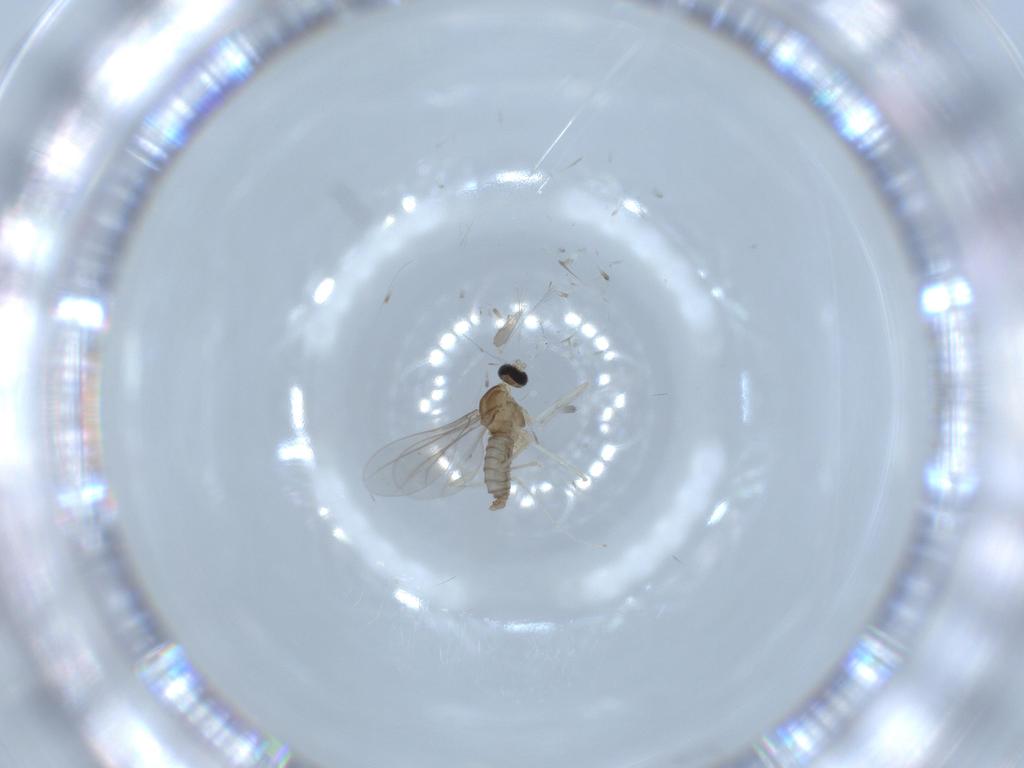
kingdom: Animalia
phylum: Arthropoda
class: Insecta
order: Diptera
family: Cecidomyiidae
